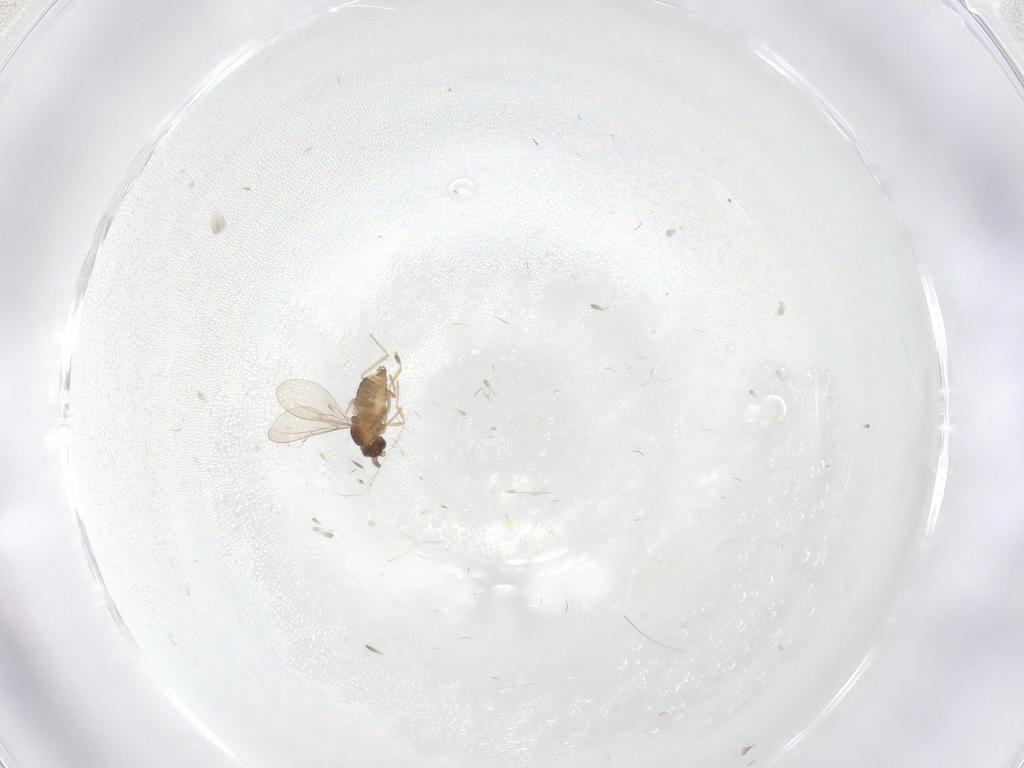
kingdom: Animalia
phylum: Arthropoda
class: Insecta
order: Diptera
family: Cecidomyiidae
